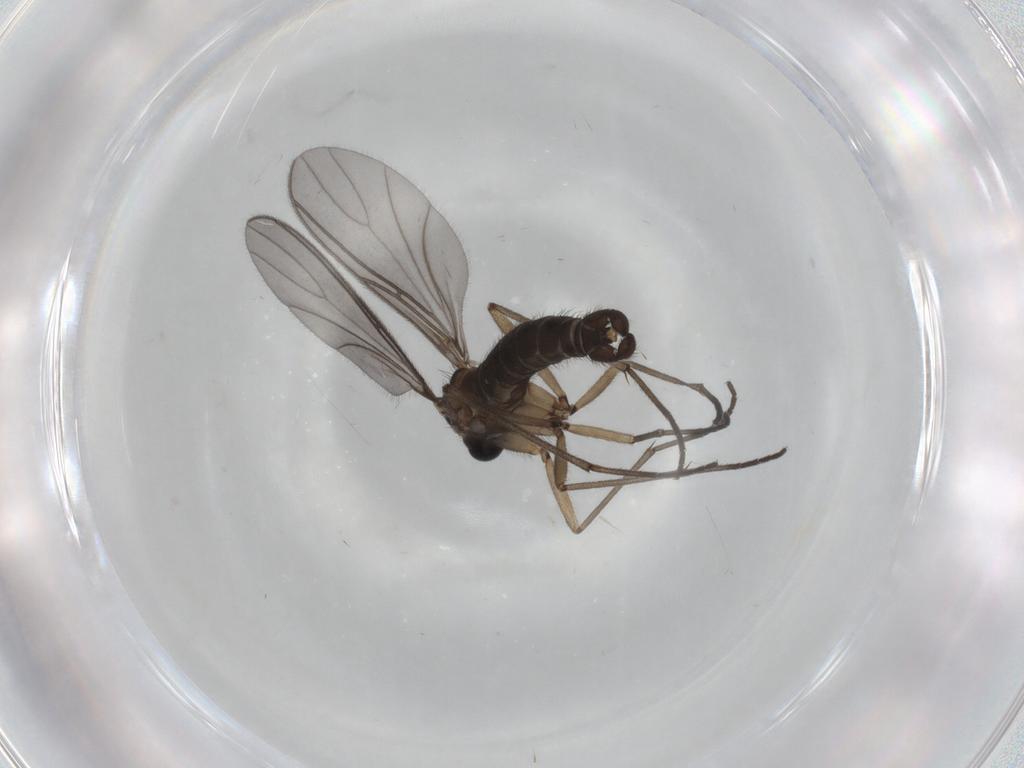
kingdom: Animalia
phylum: Arthropoda
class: Insecta
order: Diptera
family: Sciaridae
